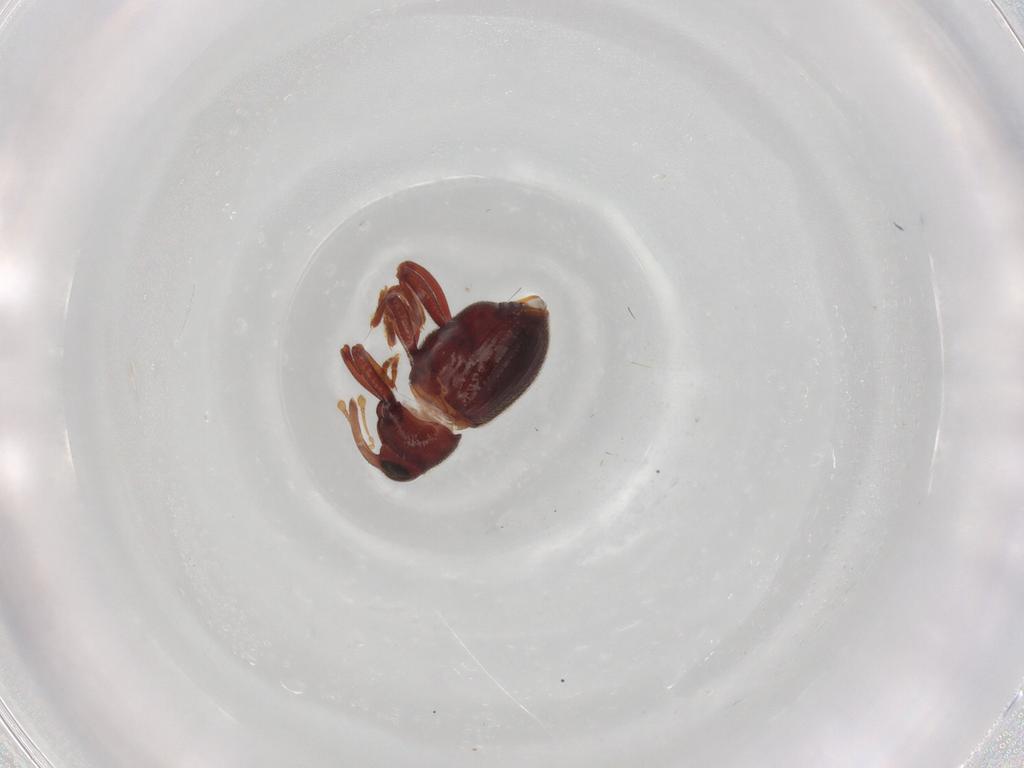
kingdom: Animalia
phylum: Arthropoda
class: Insecta
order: Coleoptera
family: Curculionidae
